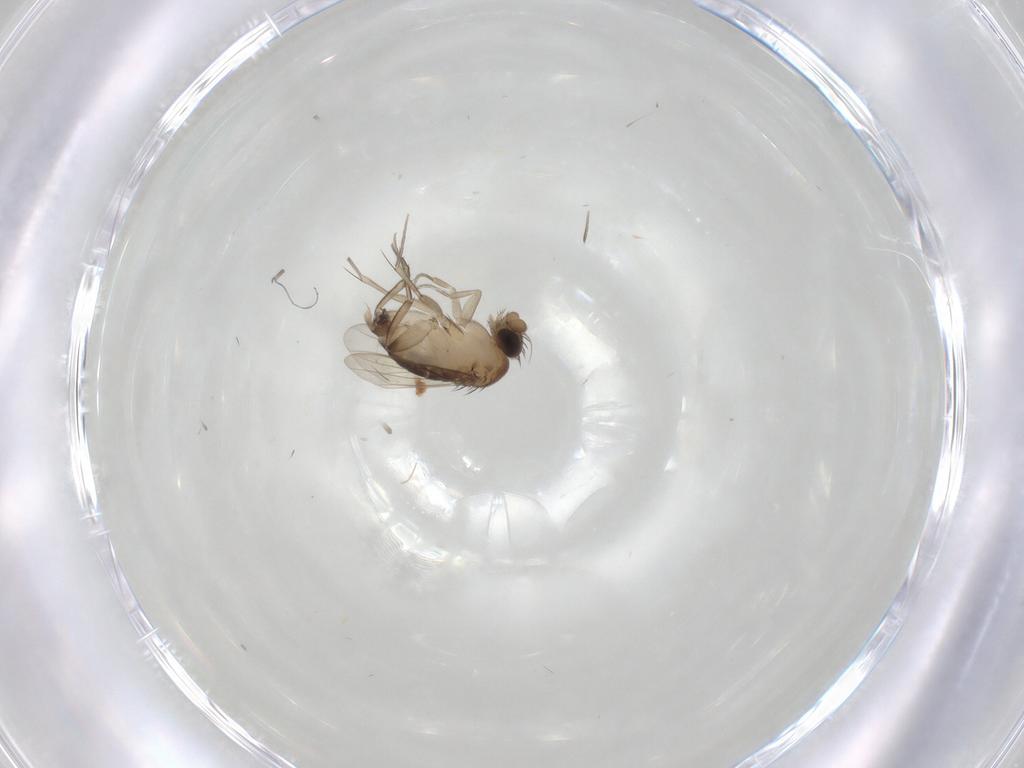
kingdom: Animalia
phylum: Arthropoda
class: Insecta
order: Diptera
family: Phoridae
